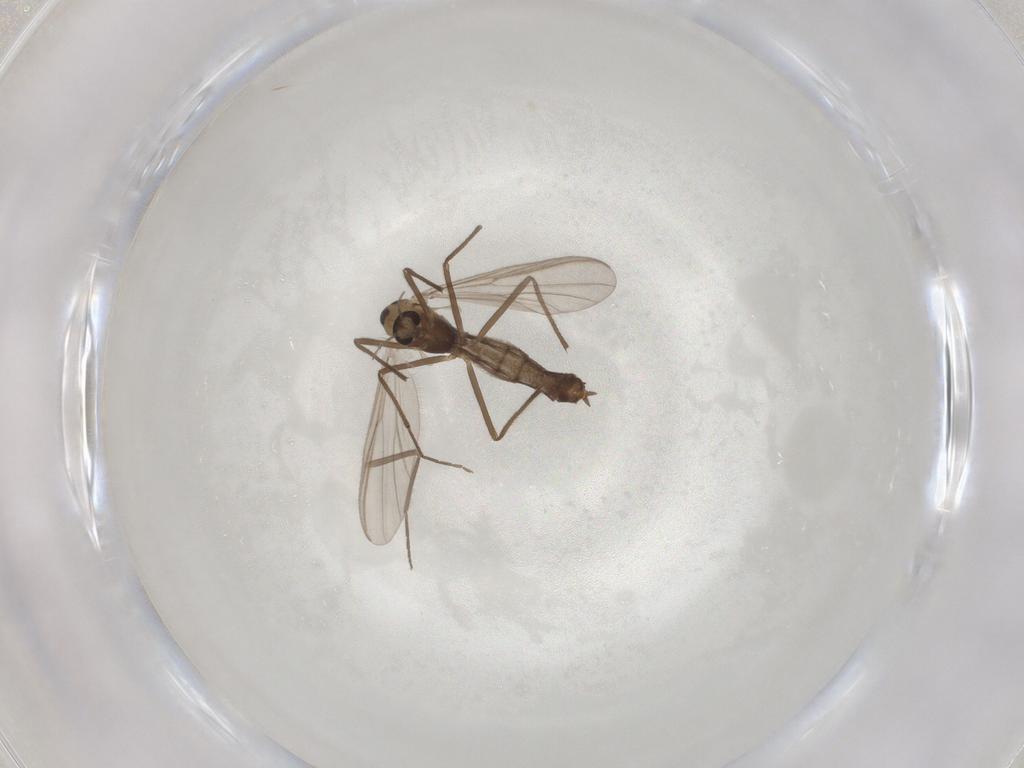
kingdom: Animalia
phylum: Arthropoda
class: Insecta
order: Diptera
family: Chironomidae
